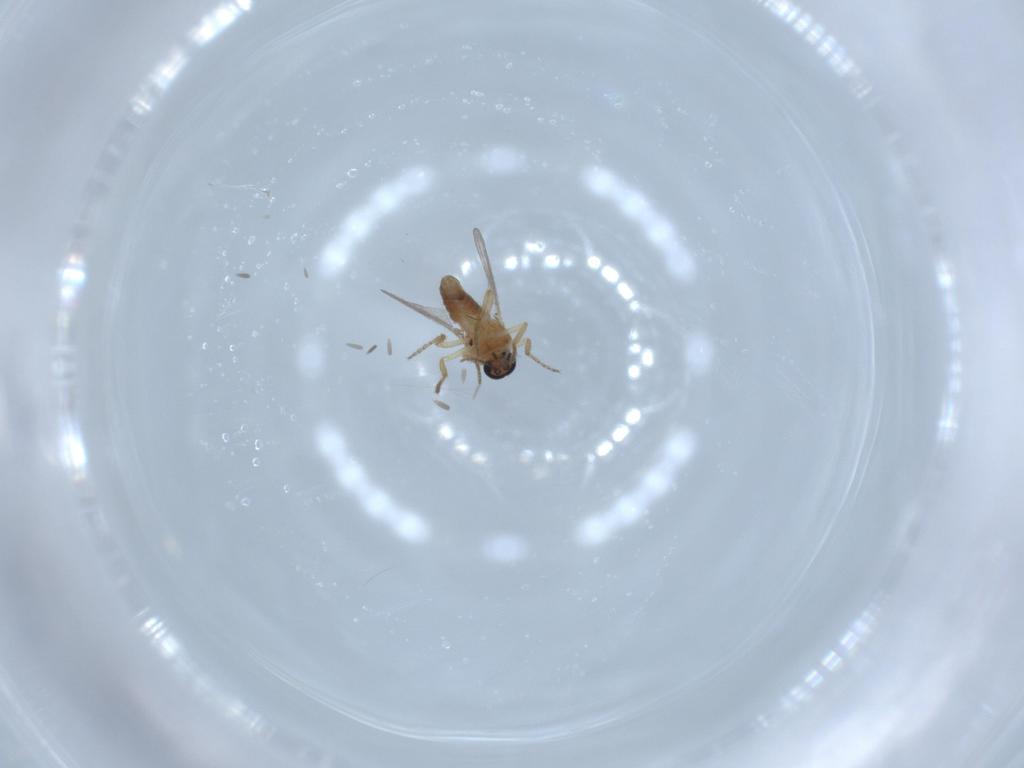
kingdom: Animalia
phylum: Arthropoda
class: Insecta
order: Diptera
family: Ceratopogonidae
